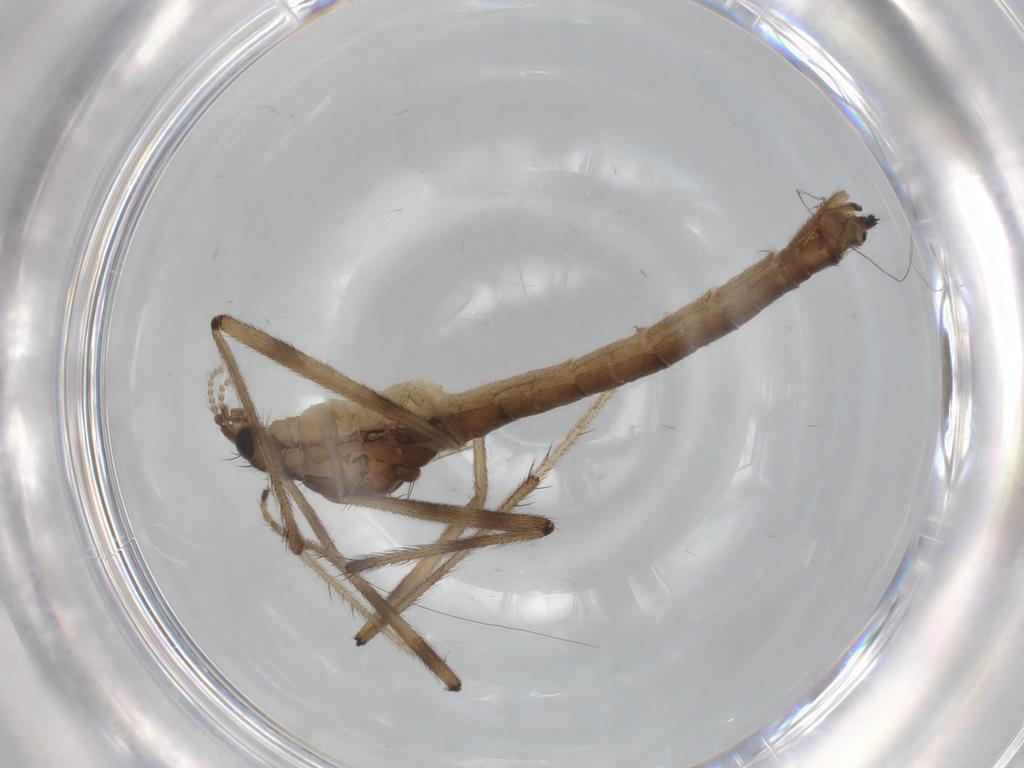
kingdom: Animalia
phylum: Arthropoda
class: Insecta
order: Diptera
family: Limoniidae
